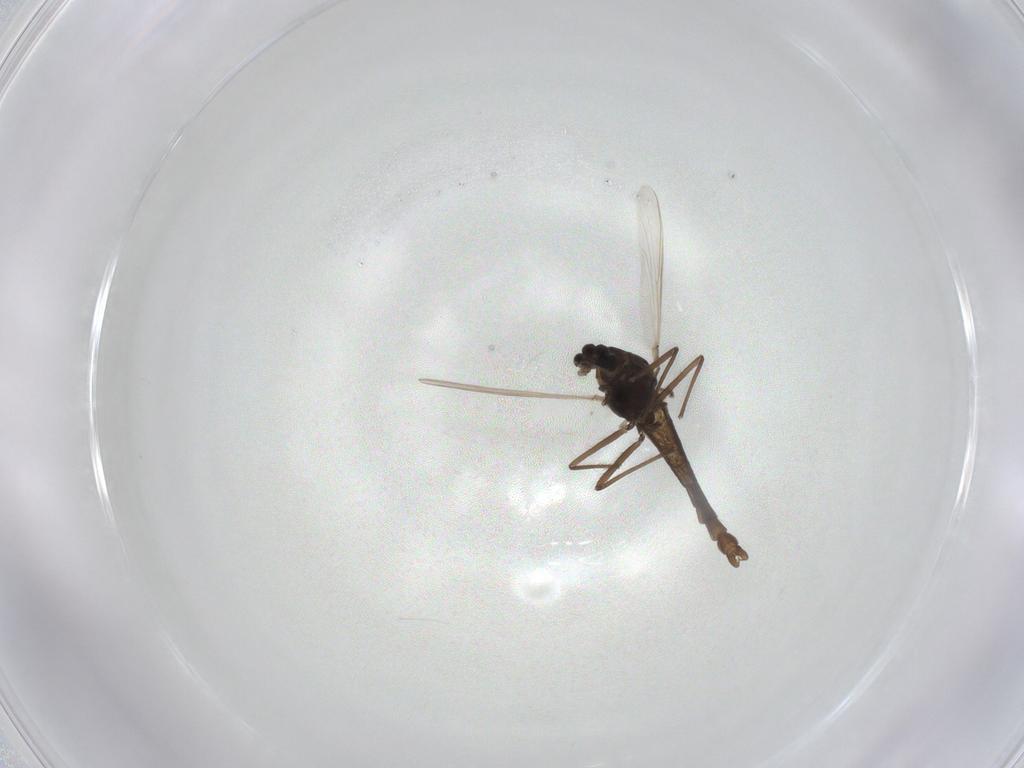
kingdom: Animalia
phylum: Arthropoda
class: Insecta
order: Diptera
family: Chironomidae
